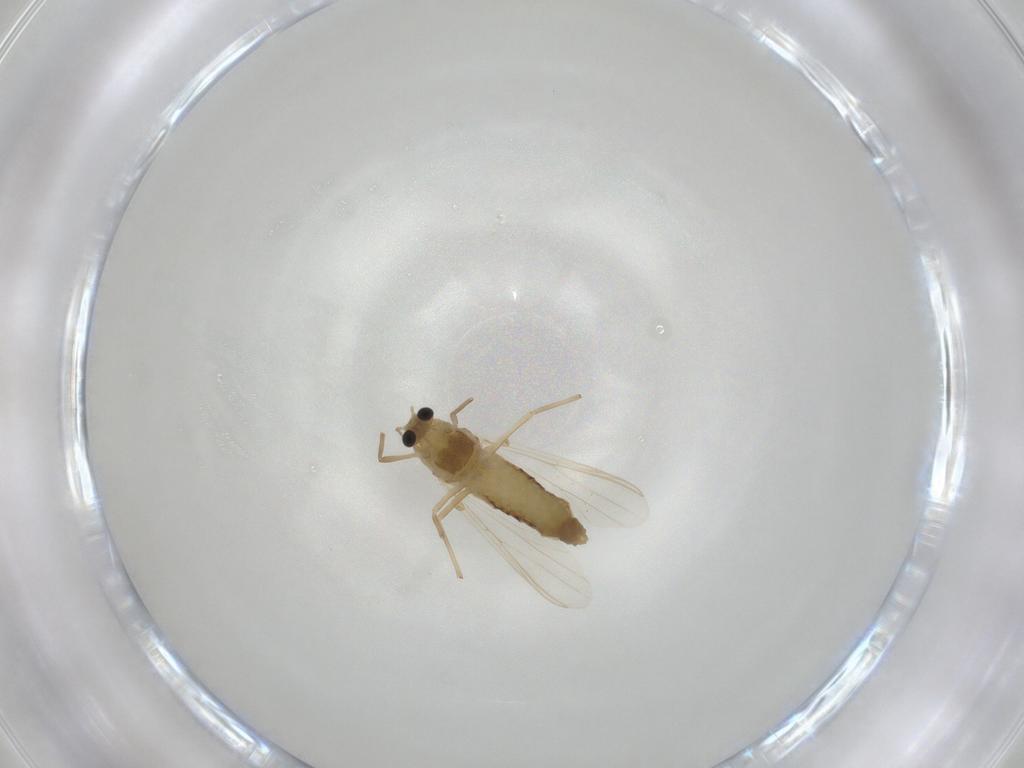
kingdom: Animalia
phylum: Arthropoda
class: Insecta
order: Diptera
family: Chironomidae
